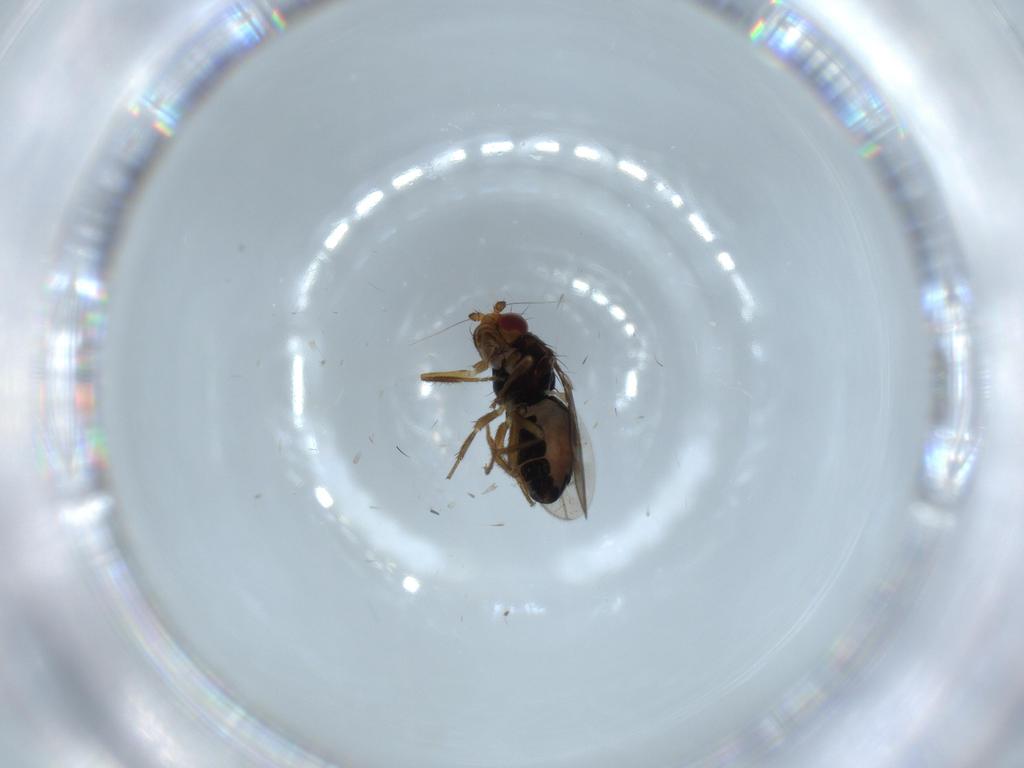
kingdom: Animalia
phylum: Arthropoda
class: Insecta
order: Diptera
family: Sphaeroceridae
